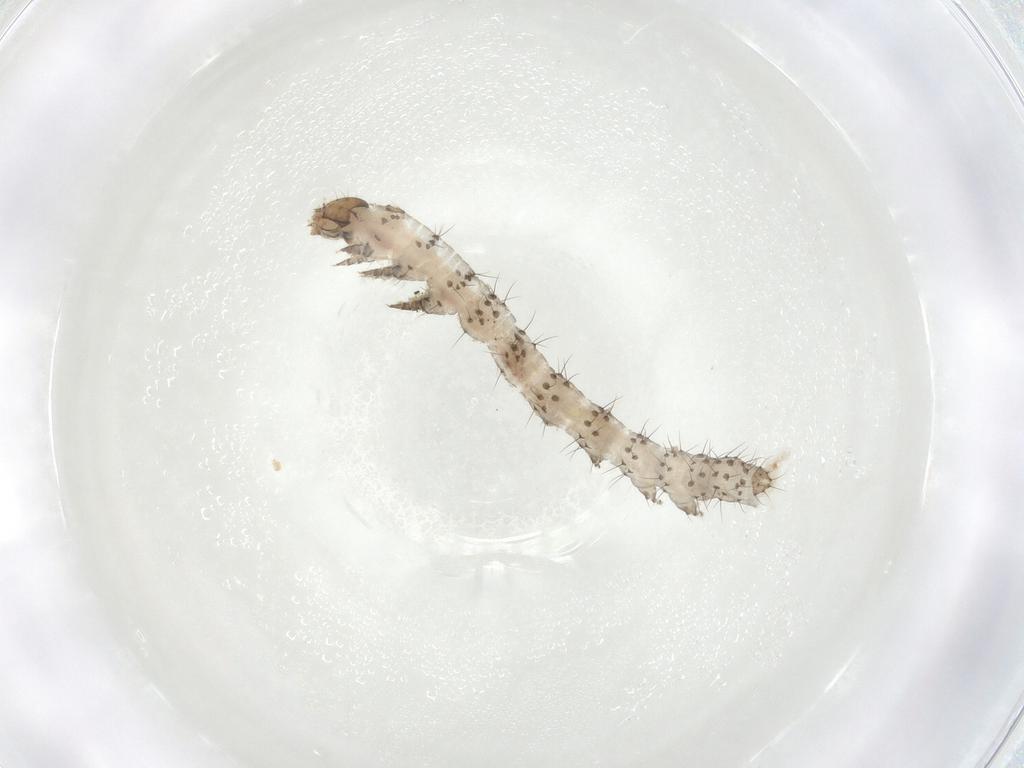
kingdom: Animalia
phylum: Arthropoda
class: Insecta
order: Lepidoptera
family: Noctuidae
